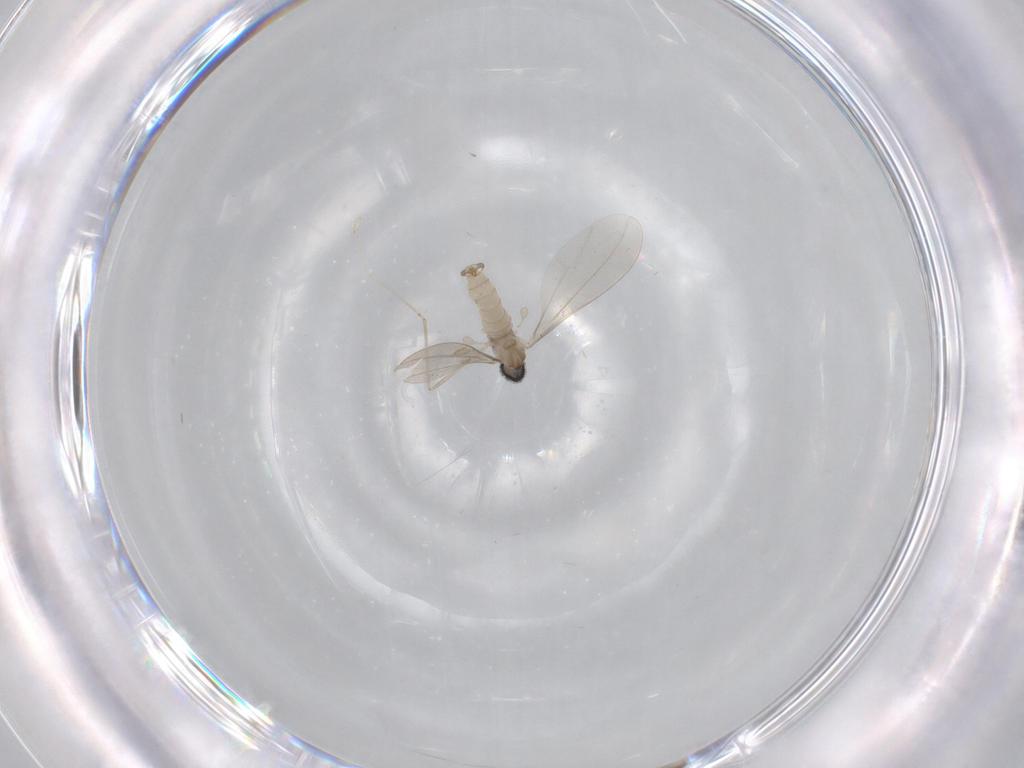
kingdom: Animalia
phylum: Arthropoda
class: Insecta
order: Diptera
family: Cecidomyiidae
